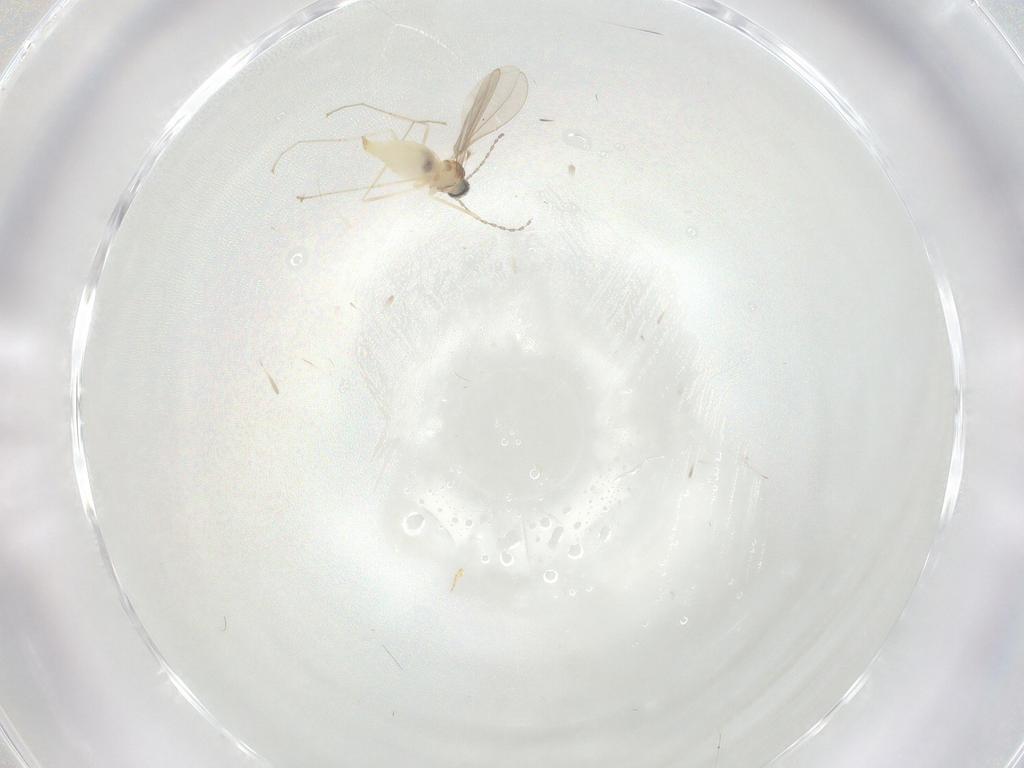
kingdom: Animalia
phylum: Arthropoda
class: Insecta
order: Diptera
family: Cecidomyiidae
